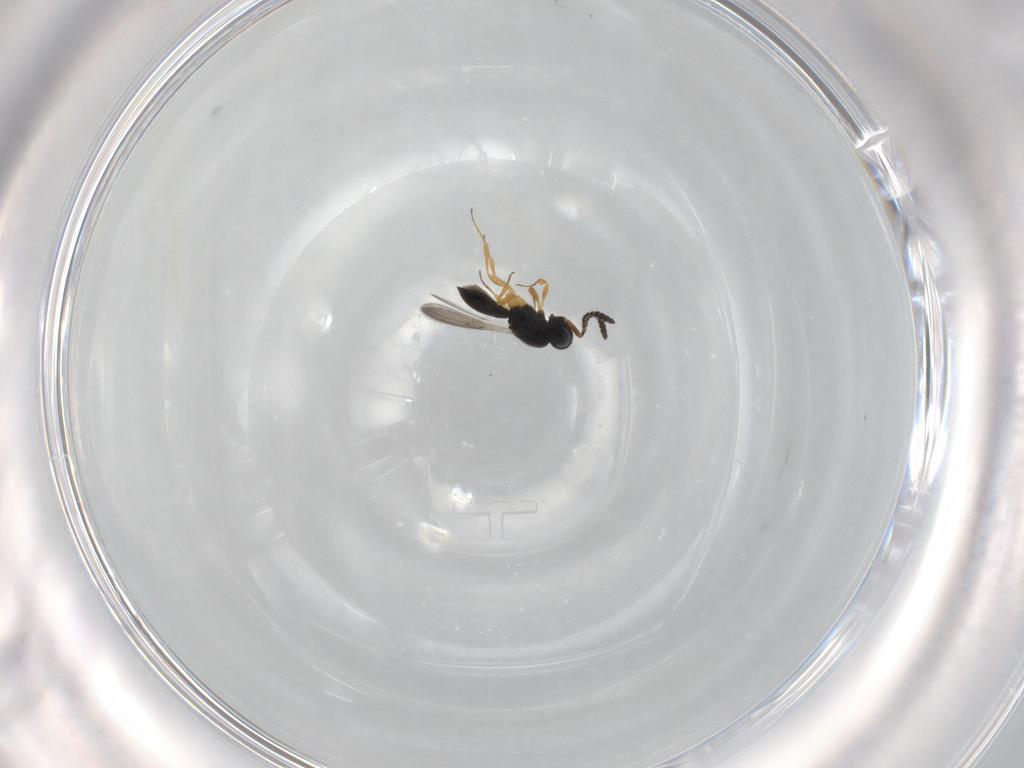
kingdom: Animalia
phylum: Arthropoda
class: Insecta
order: Hymenoptera
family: Scelionidae
